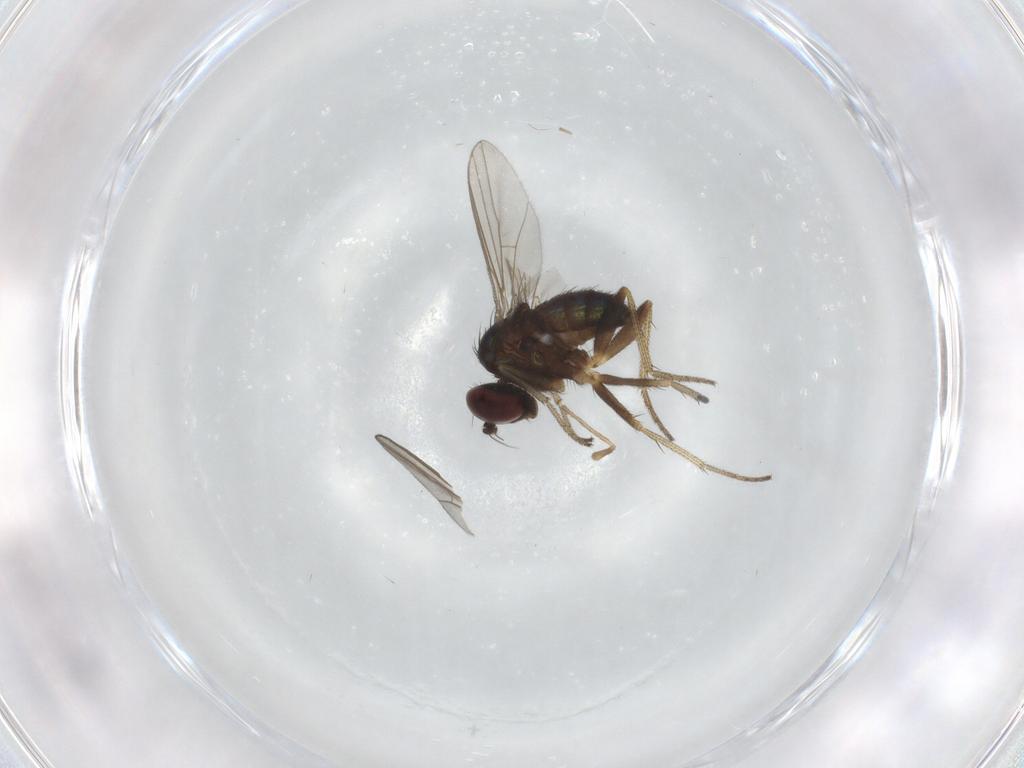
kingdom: Animalia
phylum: Arthropoda
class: Insecta
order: Diptera
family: Dolichopodidae
